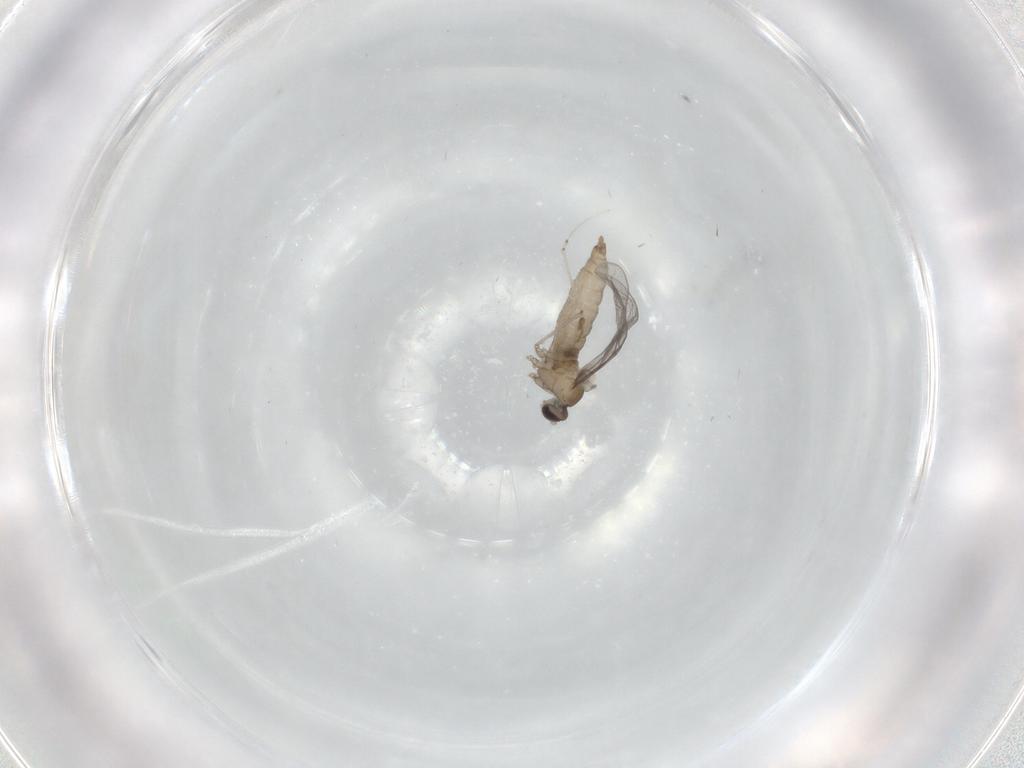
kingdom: Animalia
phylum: Arthropoda
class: Insecta
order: Diptera
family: Cecidomyiidae
